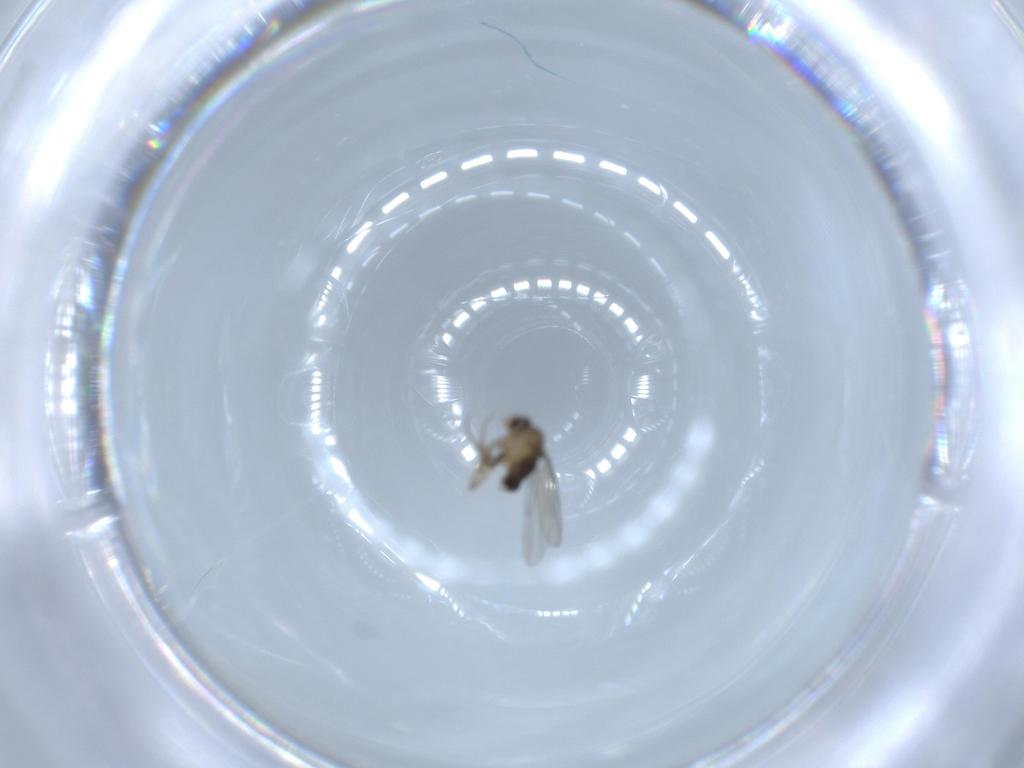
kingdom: Animalia
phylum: Arthropoda
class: Insecta
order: Diptera
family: Phoridae
